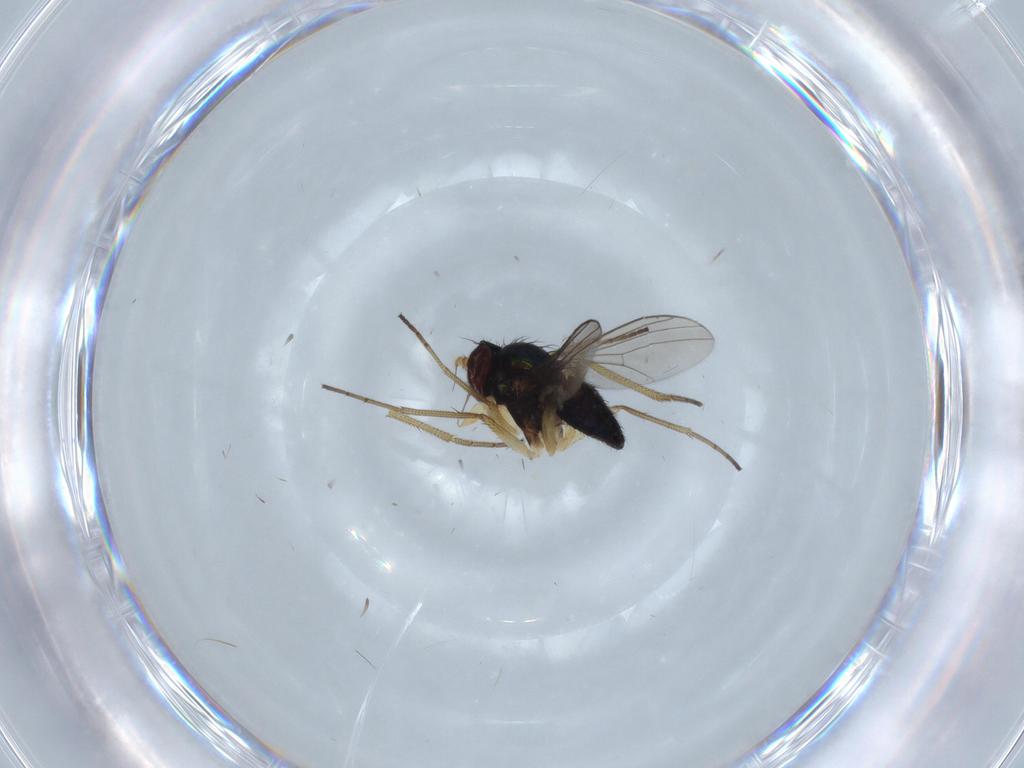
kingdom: Animalia
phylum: Arthropoda
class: Insecta
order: Diptera
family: Dolichopodidae
